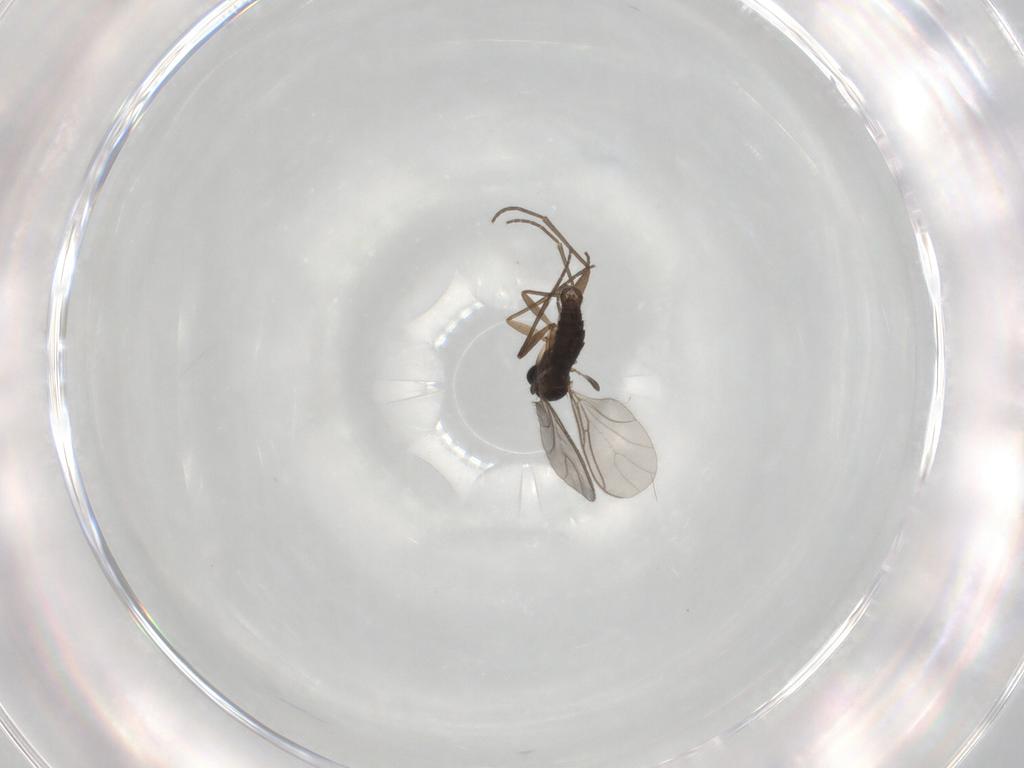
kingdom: Animalia
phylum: Arthropoda
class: Insecta
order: Diptera
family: Sciaridae
